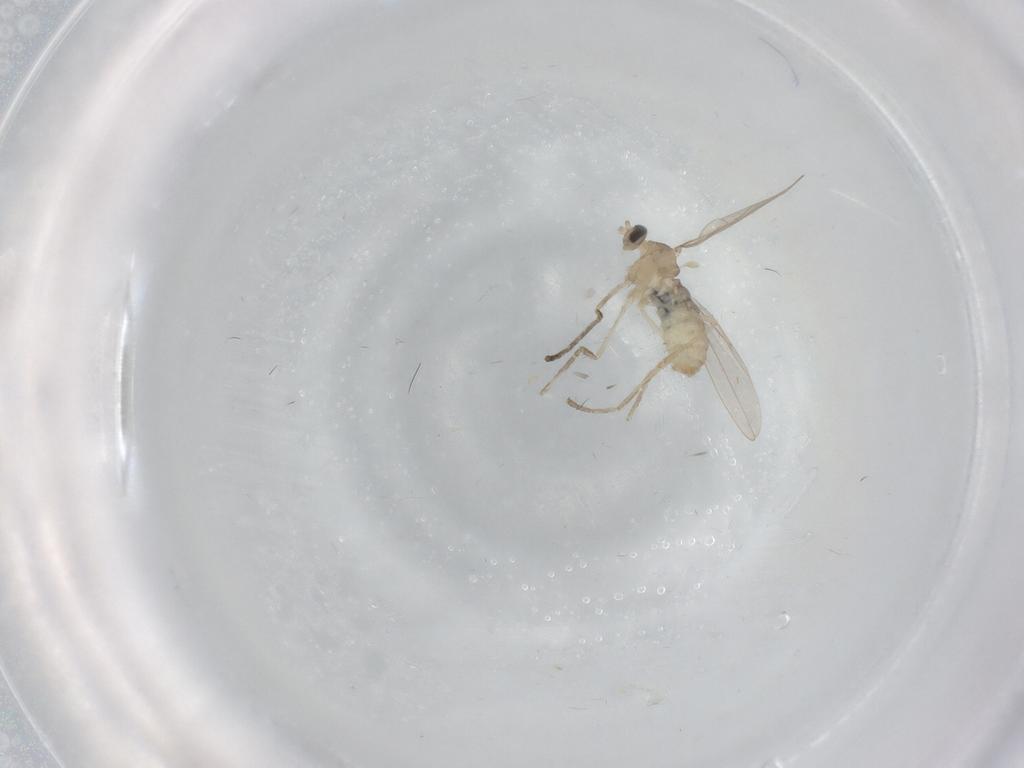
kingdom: Animalia
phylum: Arthropoda
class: Insecta
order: Diptera
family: Cecidomyiidae
